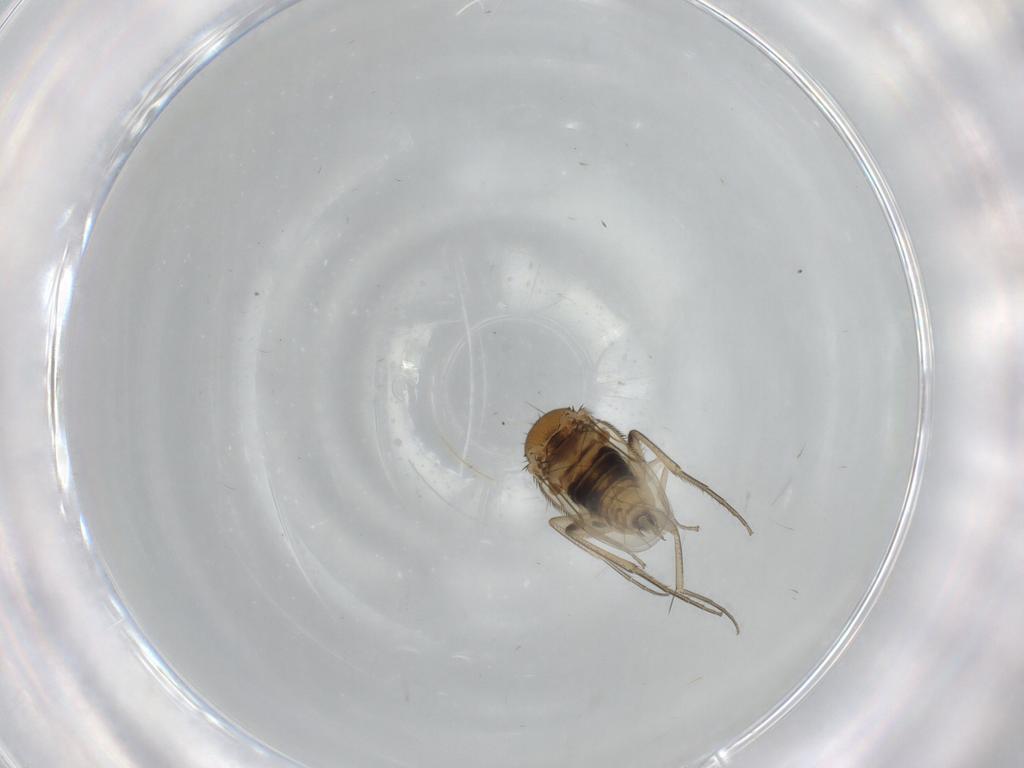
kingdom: Animalia
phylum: Arthropoda
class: Insecta
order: Diptera
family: Phoridae
